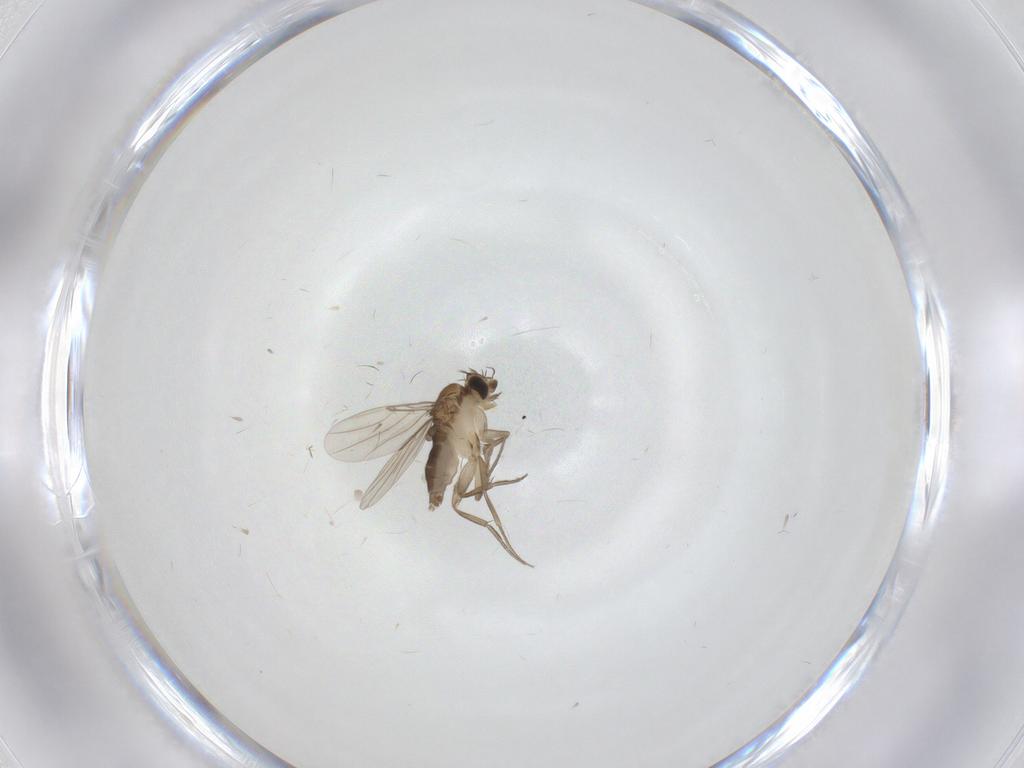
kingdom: Animalia
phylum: Arthropoda
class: Insecta
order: Diptera
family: Phoridae
